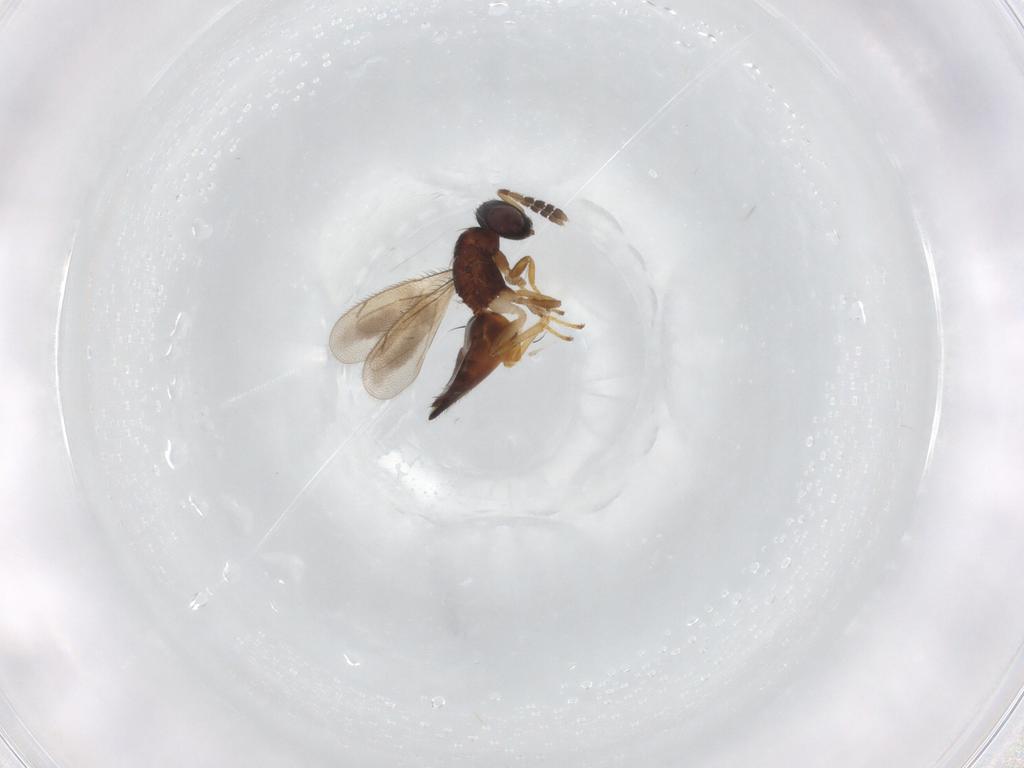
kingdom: Animalia
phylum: Arthropoda
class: Insecta
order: Hymenoptera
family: Eulophidae
